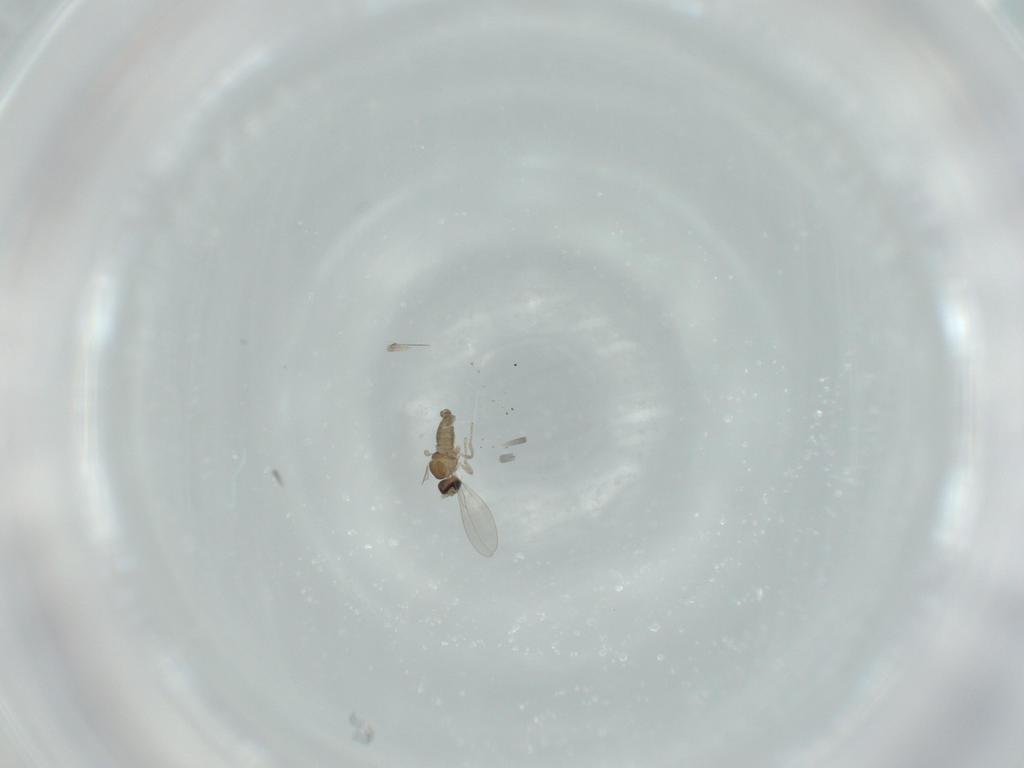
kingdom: Animalia
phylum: Arthropoda
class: Insecta
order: Diptera
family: Cecidomyiidae
